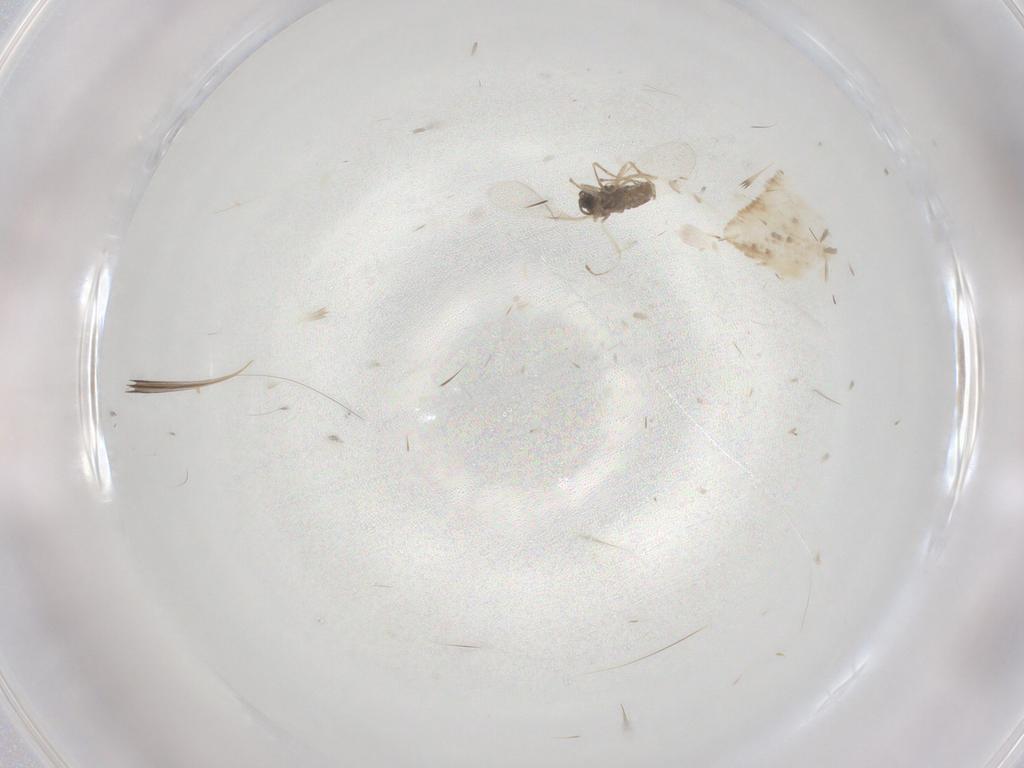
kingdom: Animalia
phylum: Arthropoda
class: Insecta
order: Diptera
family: Cecidomyiidae
